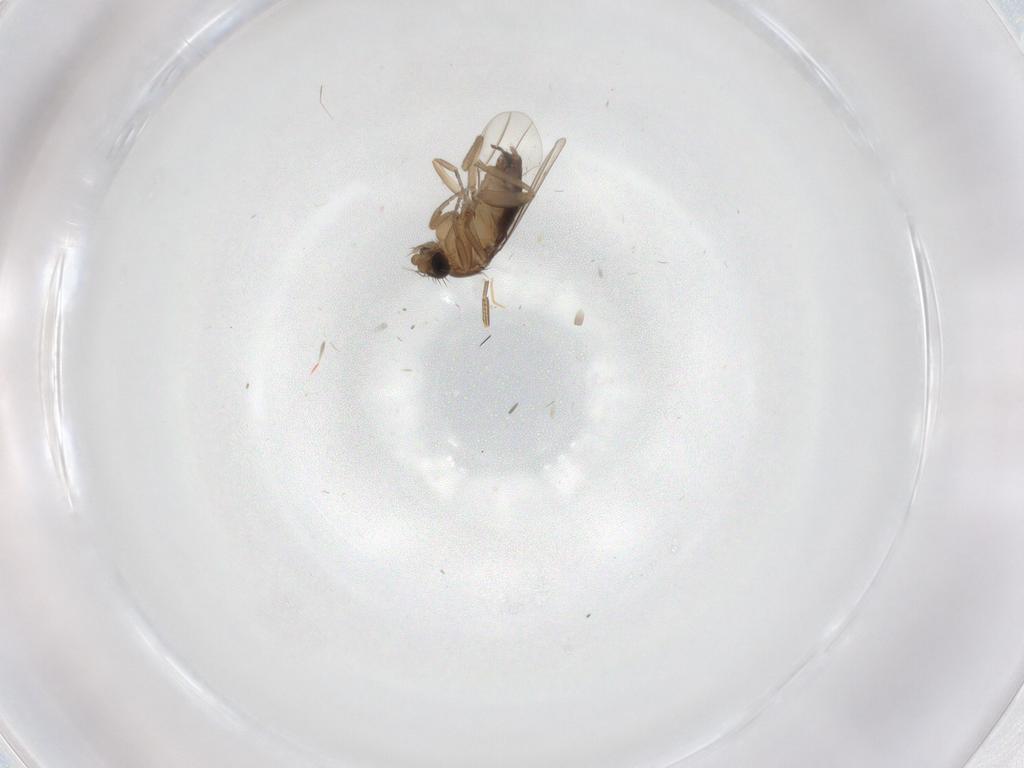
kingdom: Animalia
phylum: Arthropoda
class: Insecta
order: Diptera
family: Phoridae
